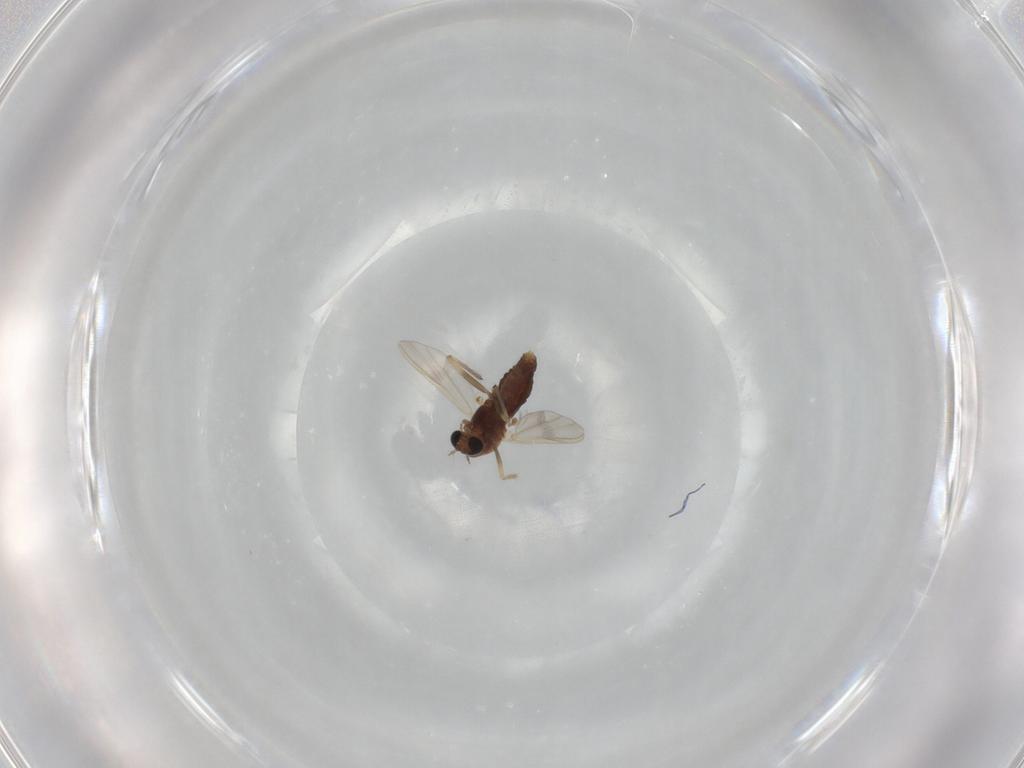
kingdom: Animalia
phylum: Arthropoda
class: Insecta
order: Diptera
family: Chironomidae
